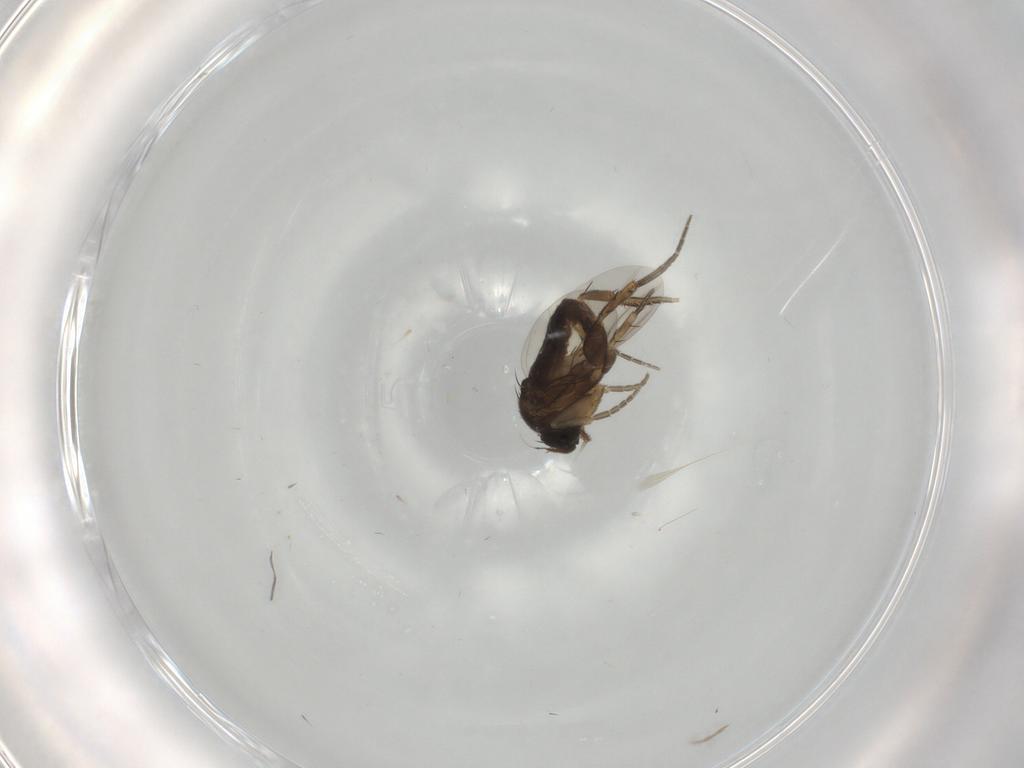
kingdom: Animalia
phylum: Arthropoda
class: Insecta
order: Diptera
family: Phoridae
